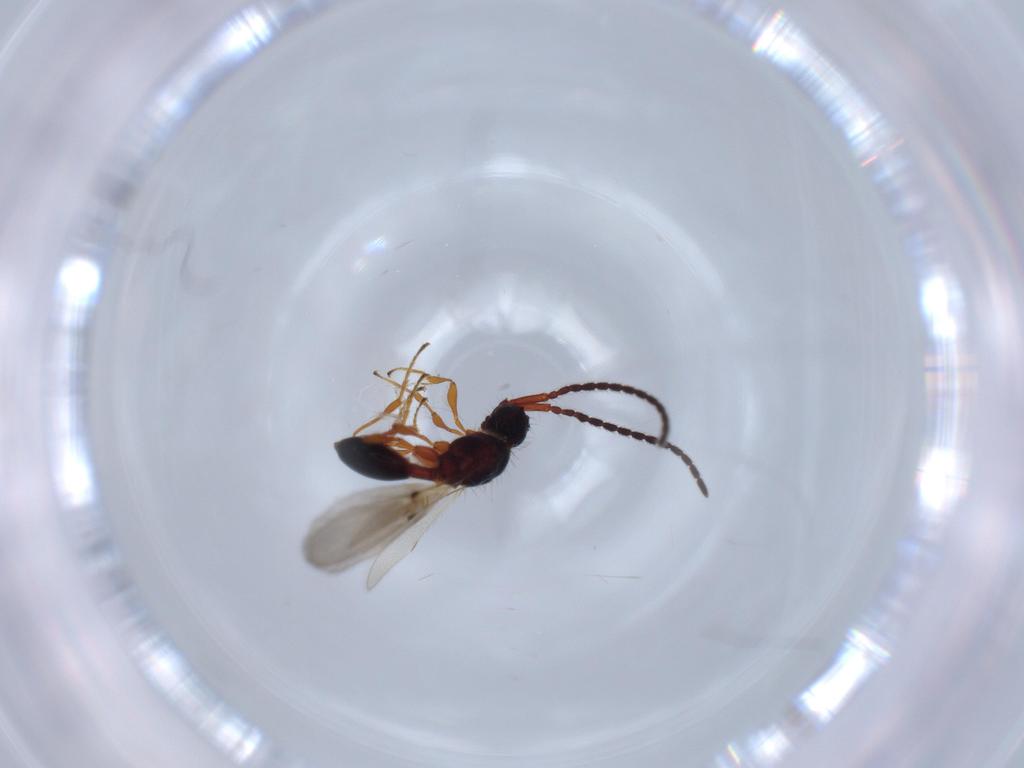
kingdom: Animalia
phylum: Arthropoda
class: Insecta
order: Hymenoptera
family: Diapriidae
